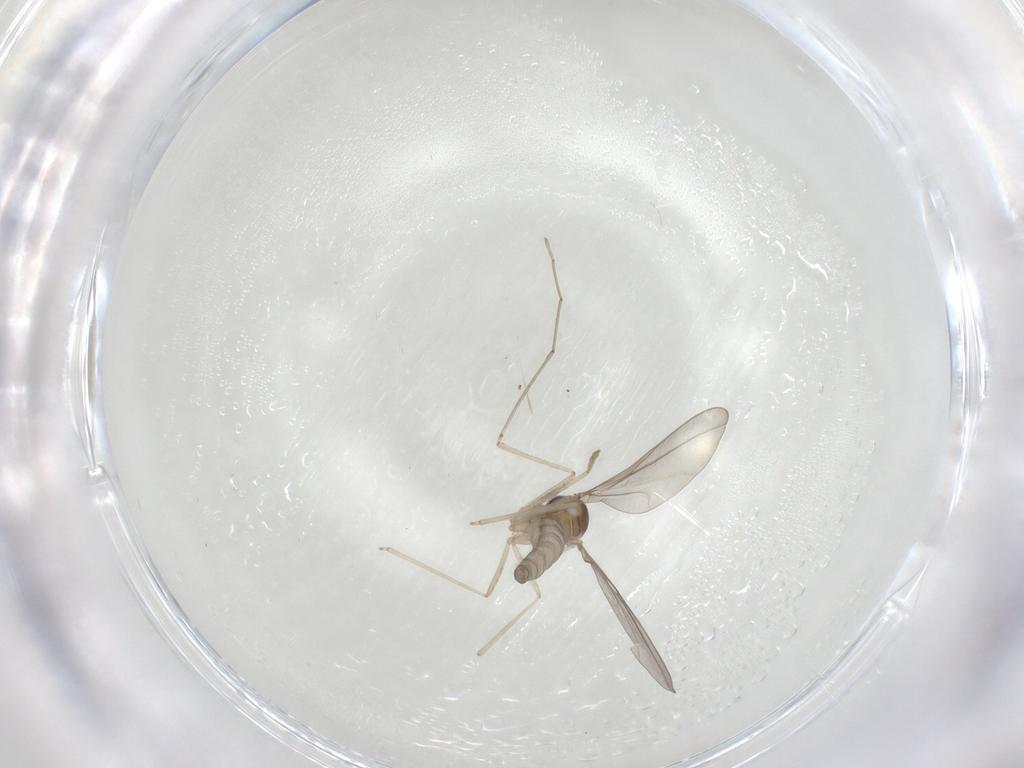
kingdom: Animalia
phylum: Arthropoda
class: Insecta
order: Diptera
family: Cecidomyiidae
